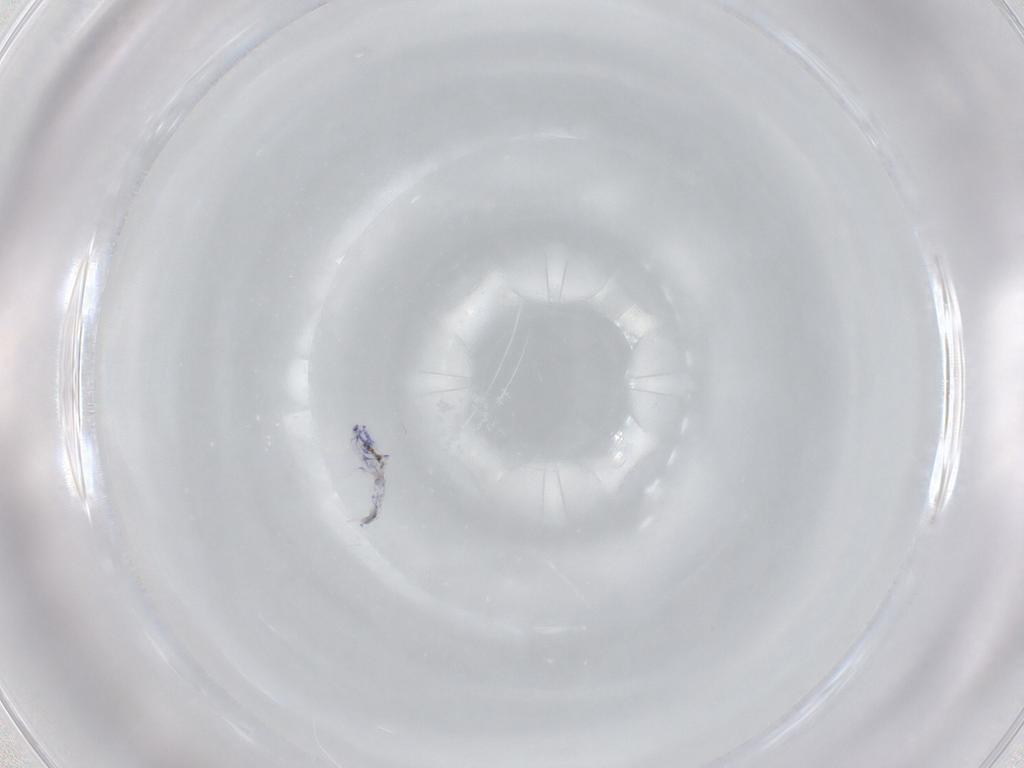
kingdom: Animalia
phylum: Arthropoda
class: Collembola
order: Entomobryomorpha
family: Entomobryidae
